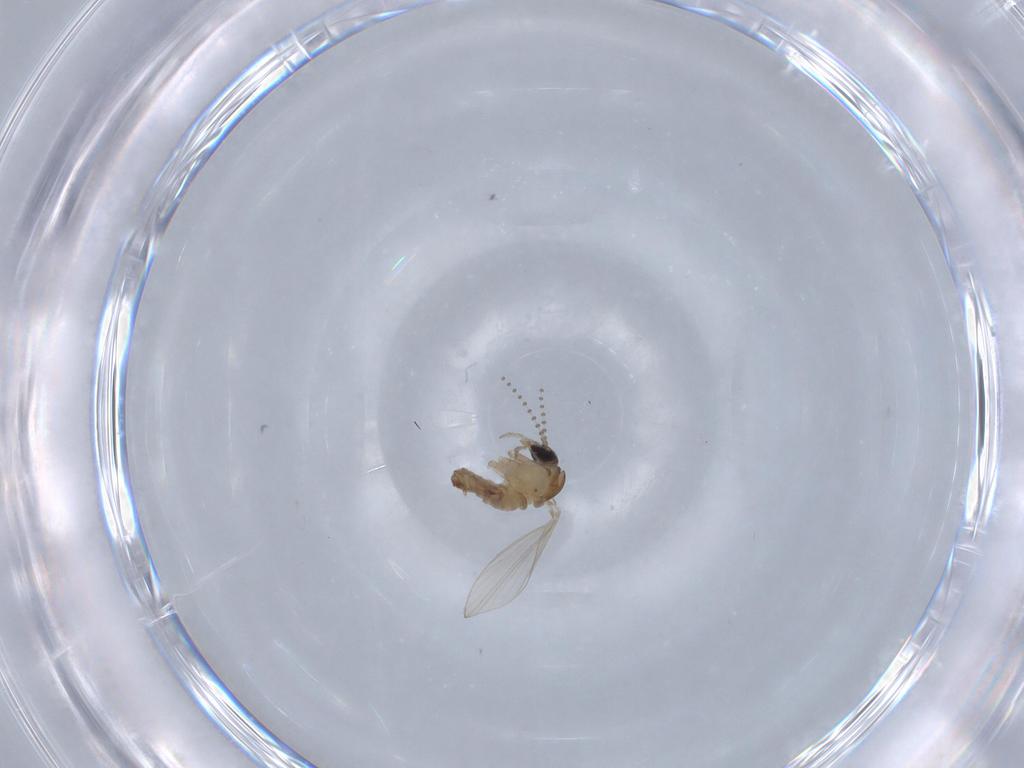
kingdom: Animalia
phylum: Arthropoda
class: Insecta
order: Diptera
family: Psychodidae
